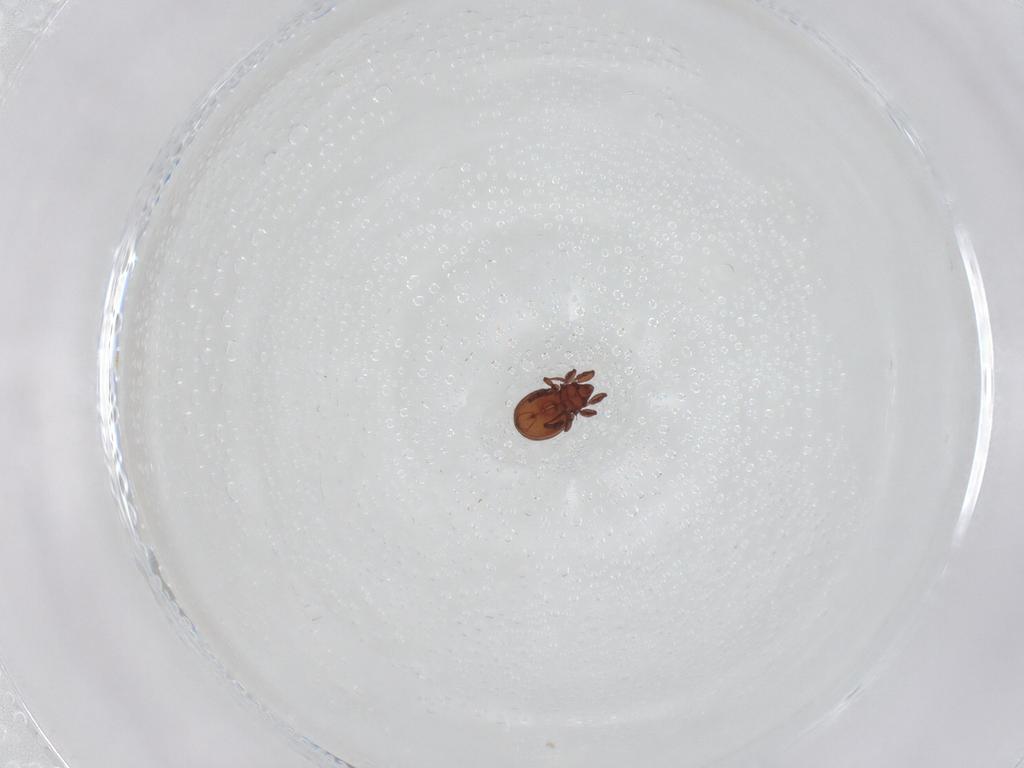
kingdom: Animalia
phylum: Arthropoda
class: Arachnida
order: Sarcoptiformes
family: Eremaeidae
